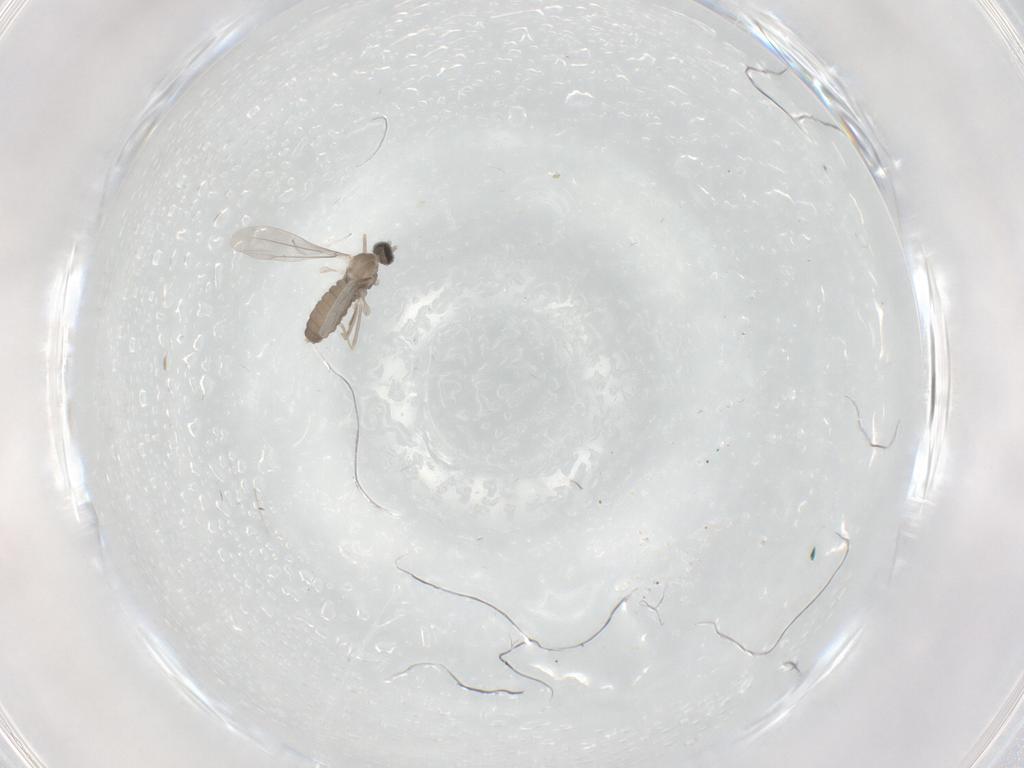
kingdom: Animalia
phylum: Arthropoda
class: Insecta
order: Diptera
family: Cecidomyiidae
